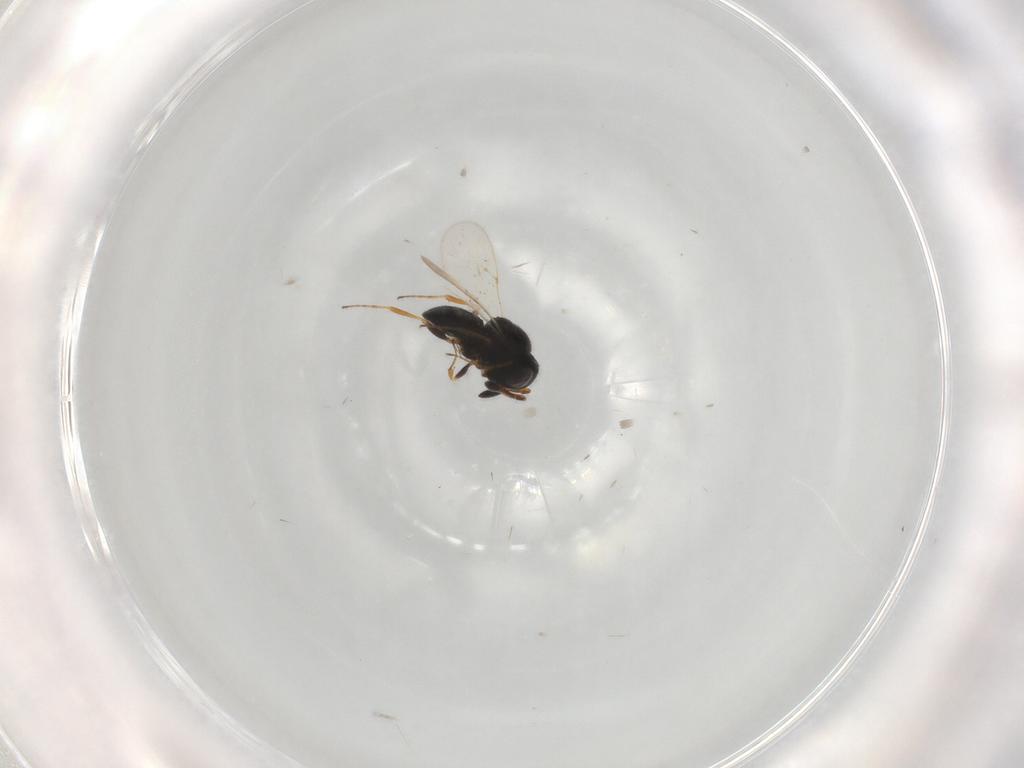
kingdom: Animalia
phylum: Arthropoda
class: Insecta
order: Coleoptera
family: Curculionidae
